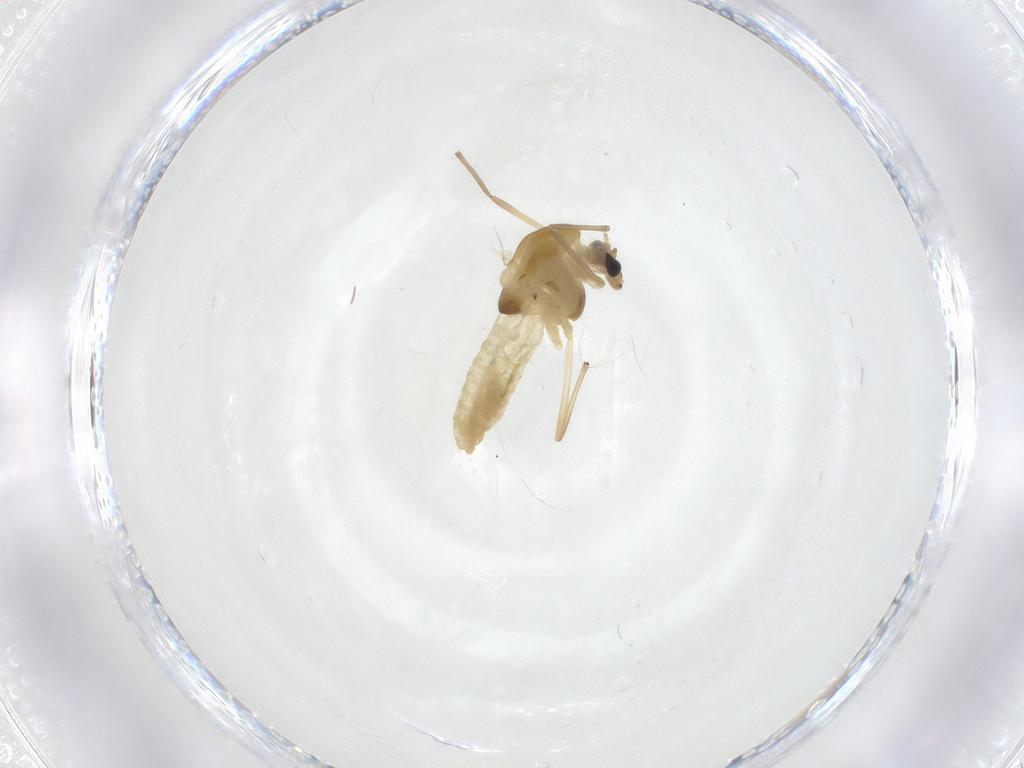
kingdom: Animalia
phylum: Arthropoda
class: Insecta
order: Diptera
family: Chironomidae
